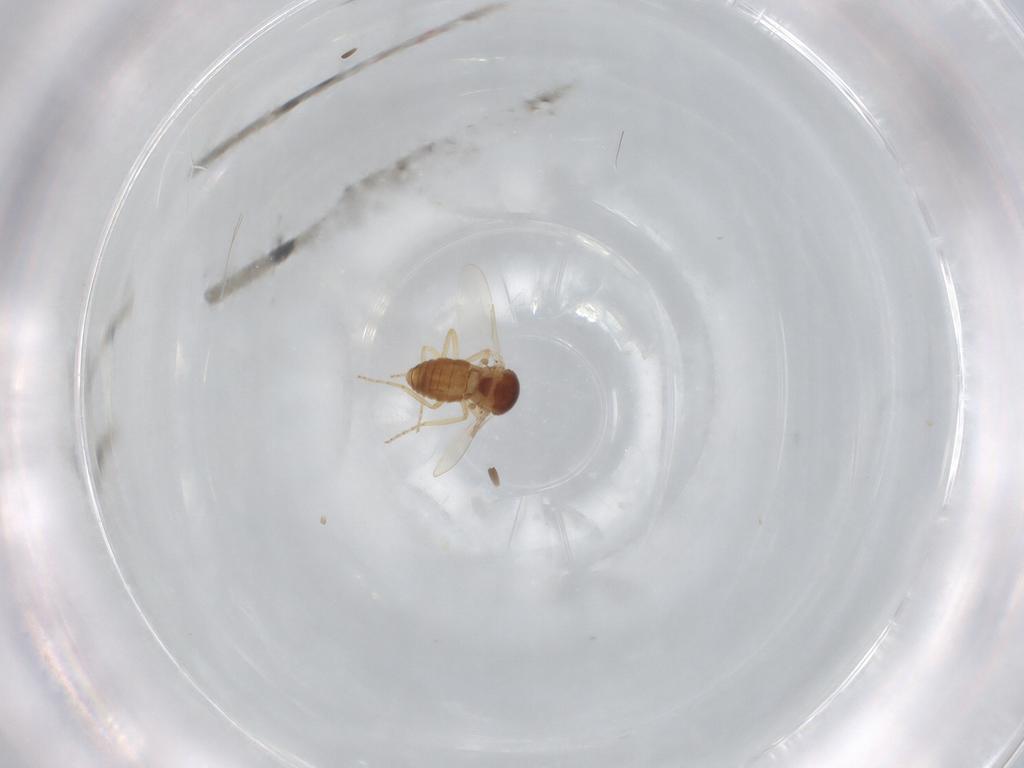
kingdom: Animalia
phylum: Arthropoda
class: Insecta
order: Diptera
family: Sciaridae
